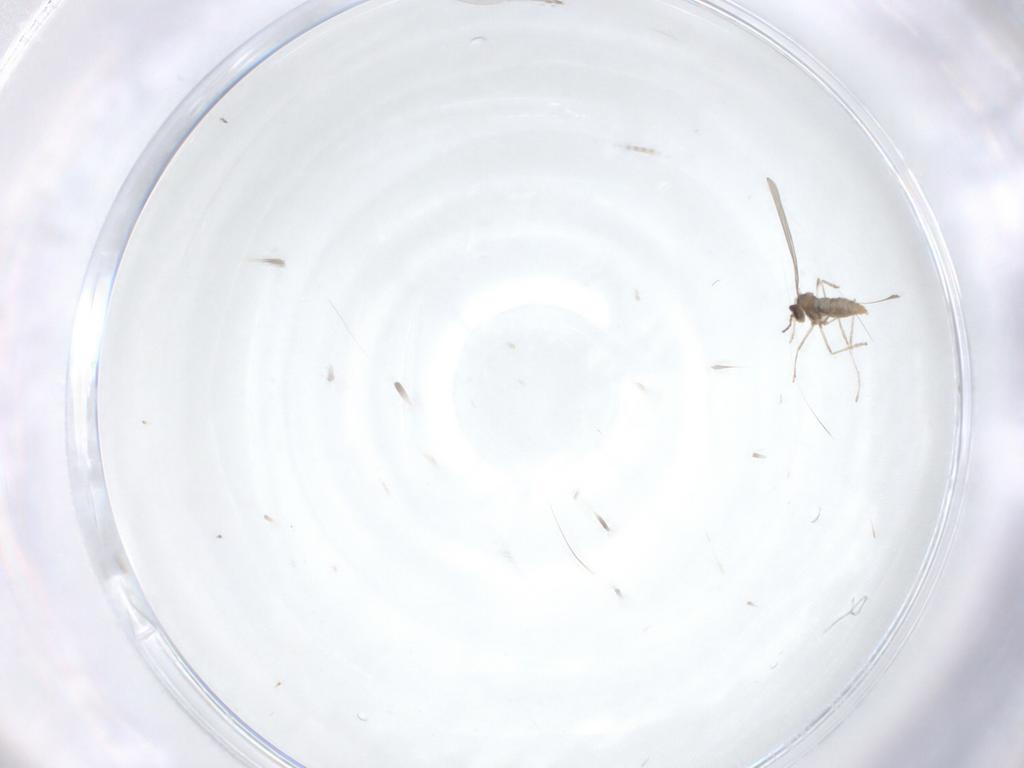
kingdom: Animalia
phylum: Arthropoda
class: Insecta
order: Diptera
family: Cecidomyiidae
